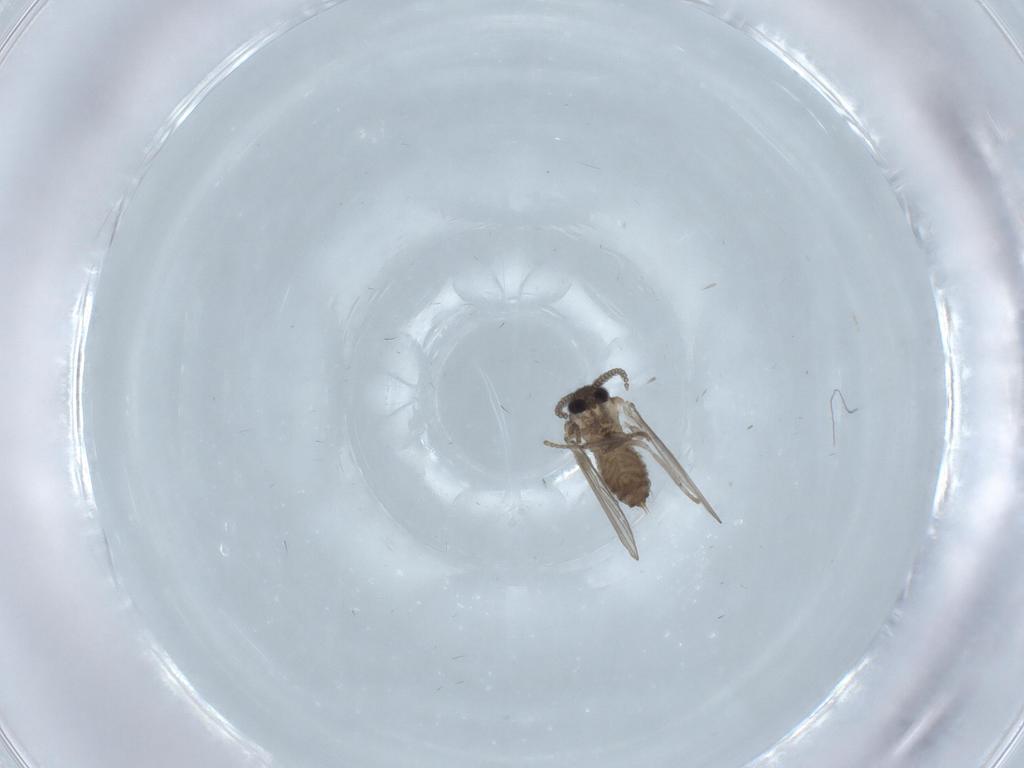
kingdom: Animalia
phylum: Arthropoda
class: Insecta
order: Diptera
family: Psychodidae
